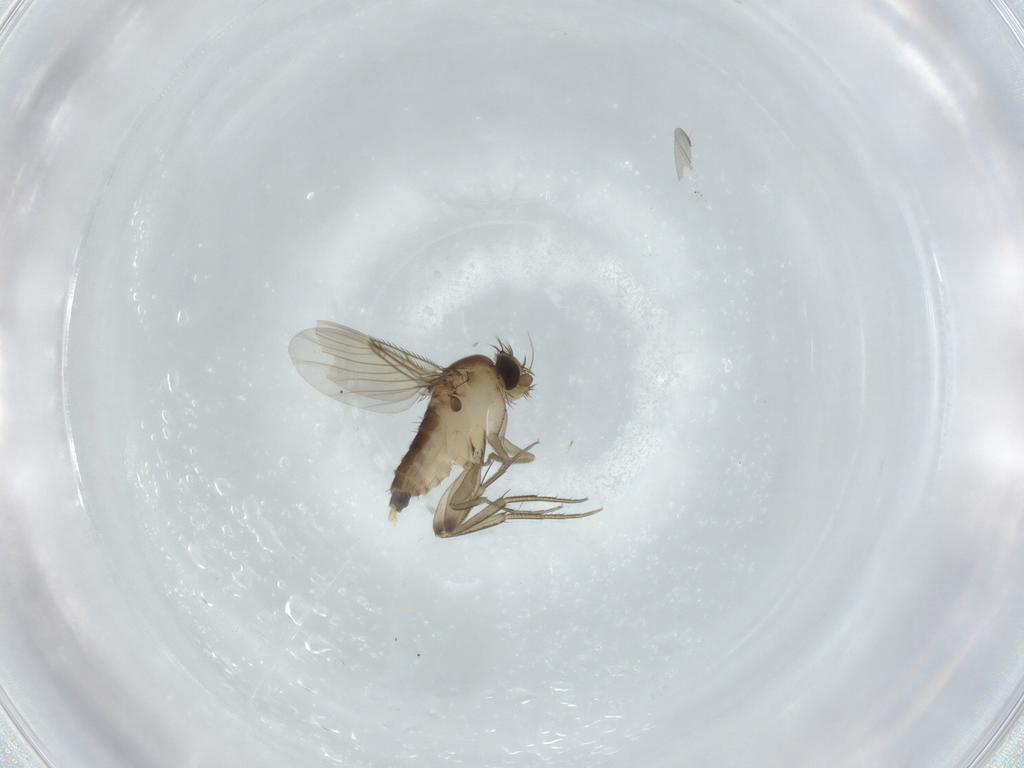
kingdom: Animalia
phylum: Arthropoda
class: Insecta
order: Diptera
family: Phoridae
